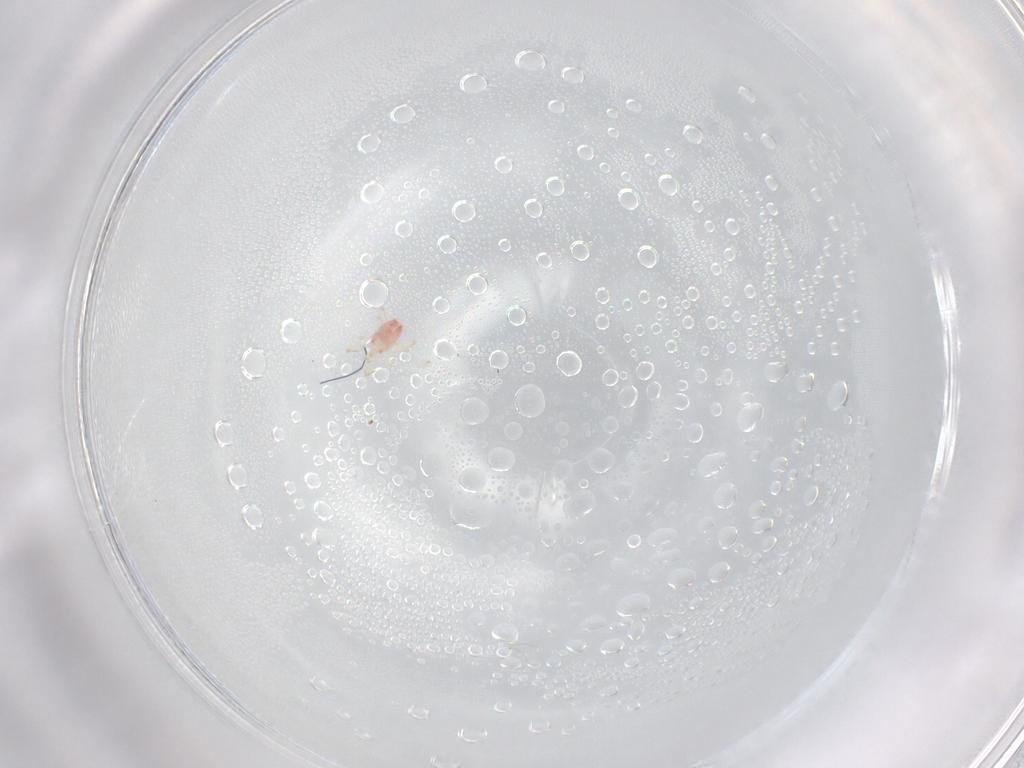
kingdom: Animalia
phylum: Arthropoda
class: Arachnida
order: Mesostigmata
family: Phytoseiidae
